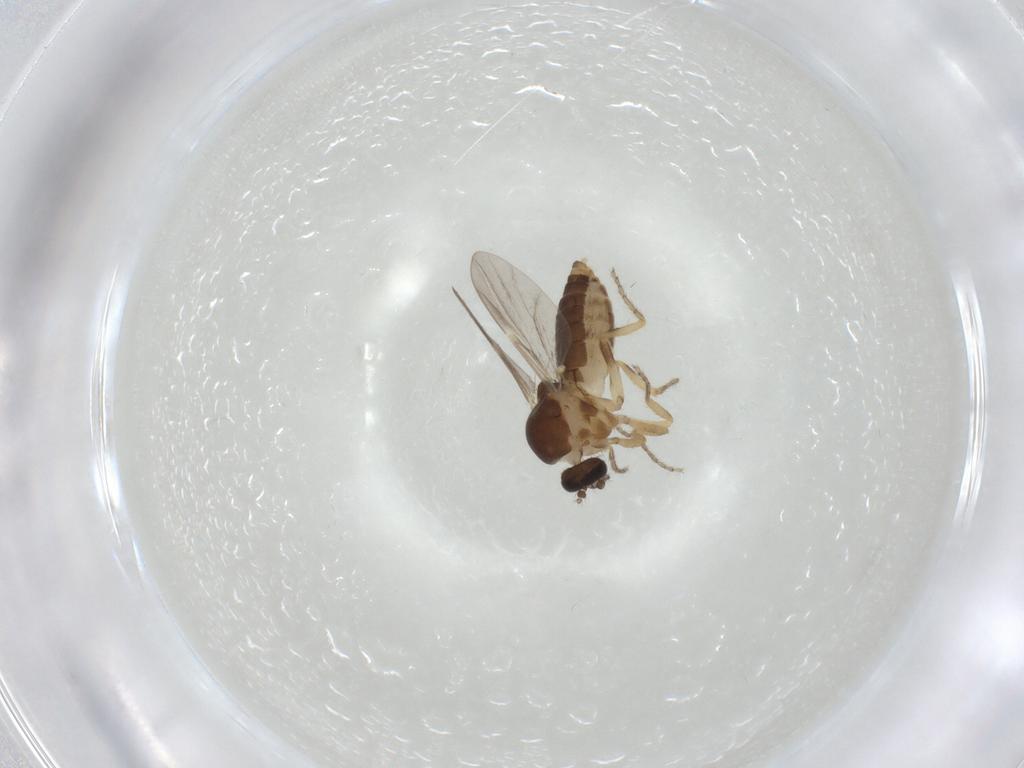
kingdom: Animalia
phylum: Arthropoda
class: Insecta
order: Diptera
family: Ceratopogonidae
